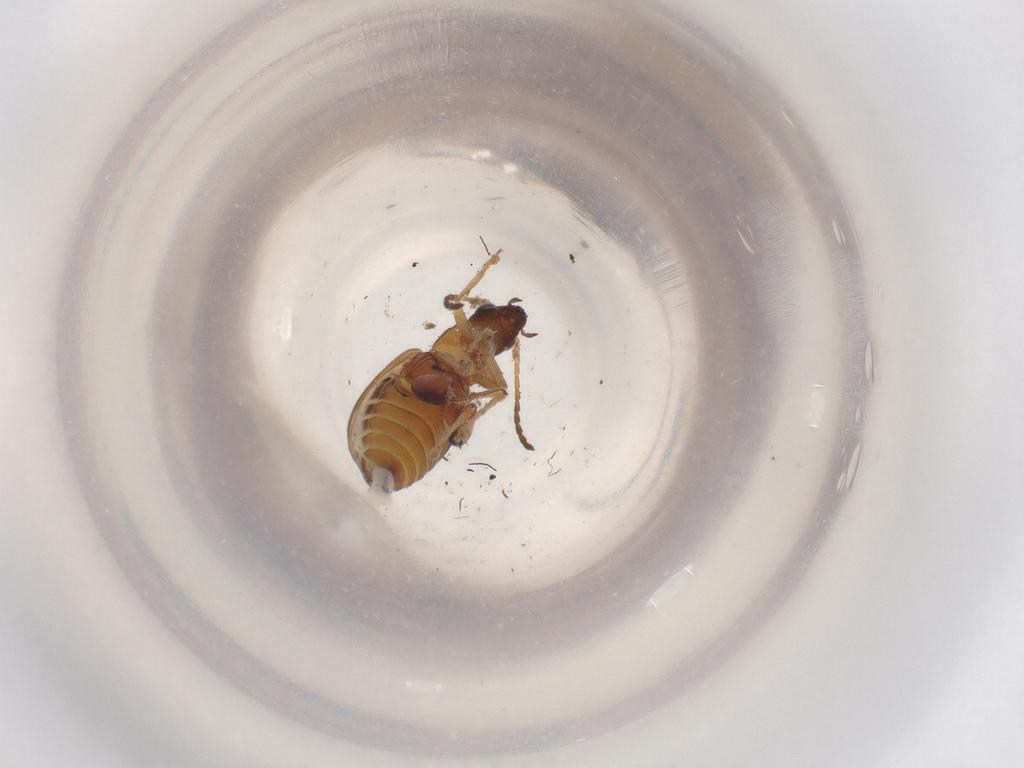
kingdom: Animalia
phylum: Arthropoda
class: Insecta
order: Coleoptera
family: Chrysomelidae
